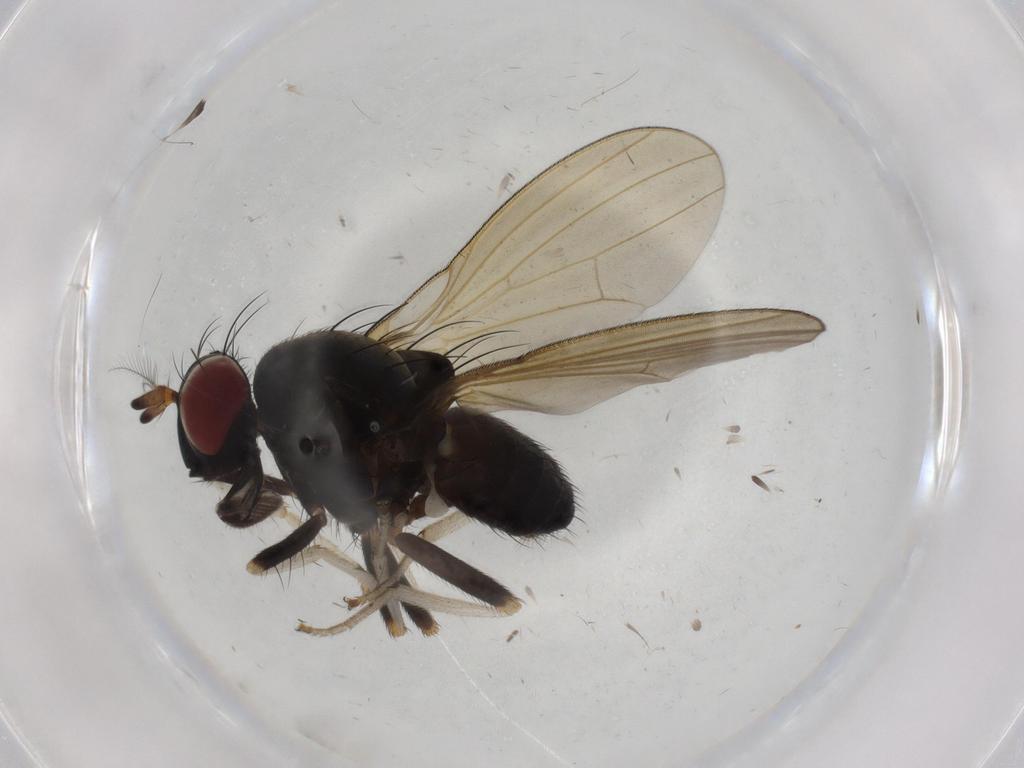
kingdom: Animalia
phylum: Arthropoda
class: Insecta
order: Diptera
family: Sciaridae
